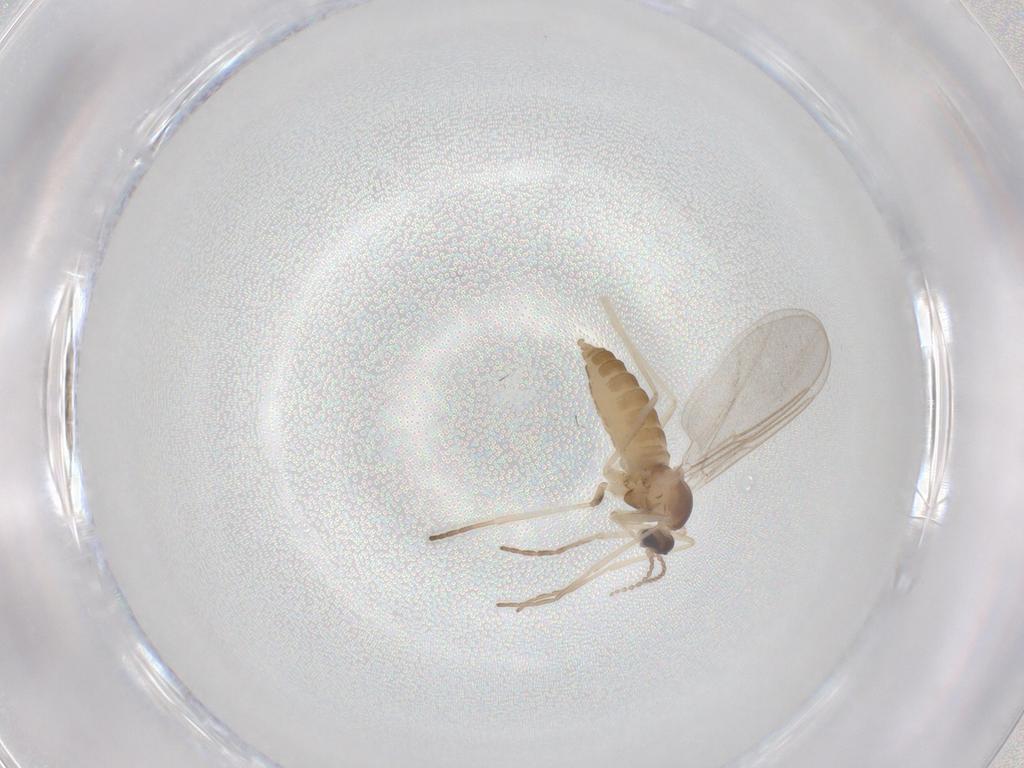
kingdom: Animalia
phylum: Arthropoda
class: Insecta
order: Diptera
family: Cecidomyiidae
